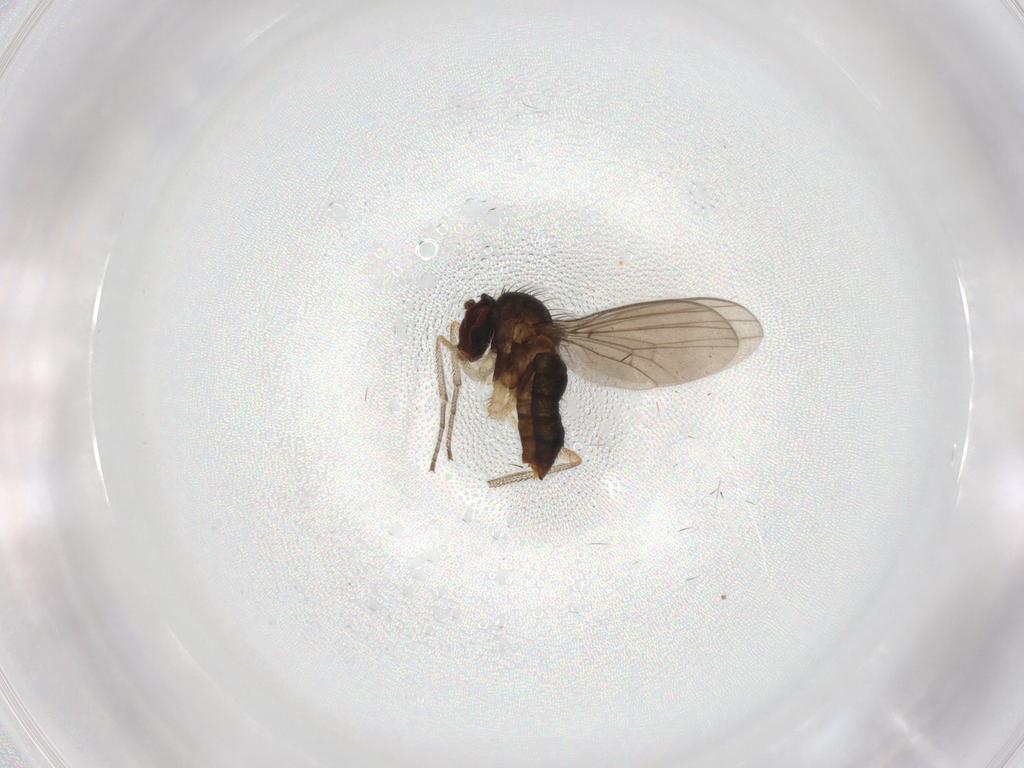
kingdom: Animalia
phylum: Arthropoda
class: Insecta
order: Diptera
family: Dolichopodidae
